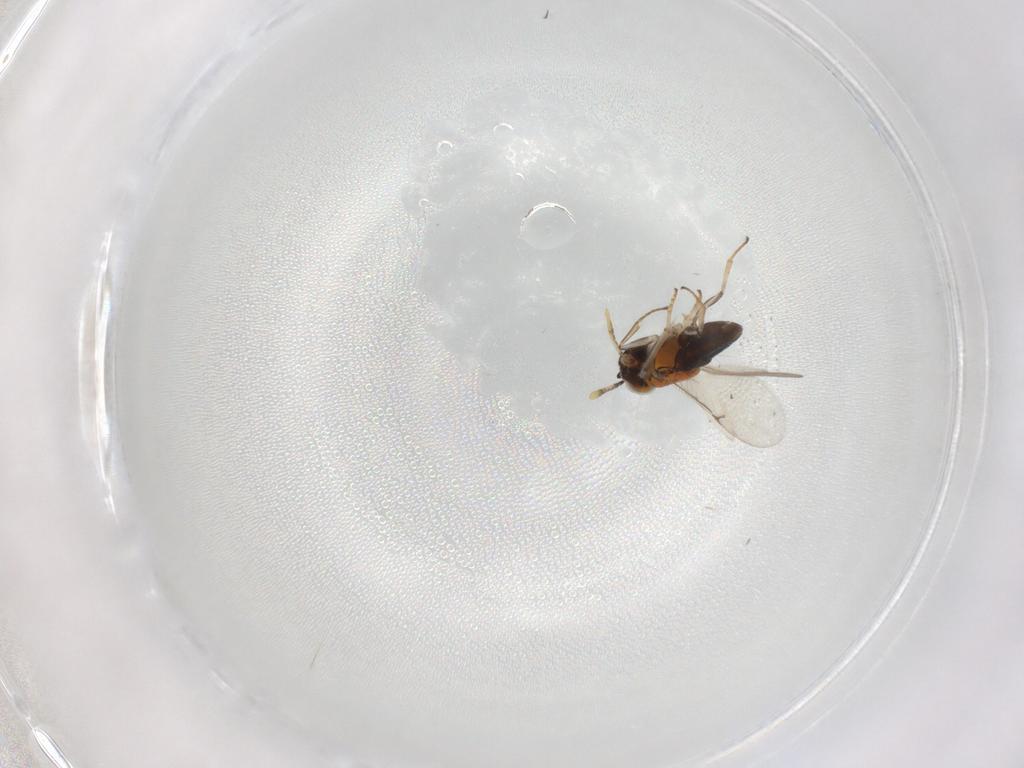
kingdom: Animalia
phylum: Arthropoda
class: Insecta
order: Hymenoptera
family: Encyrtidae
